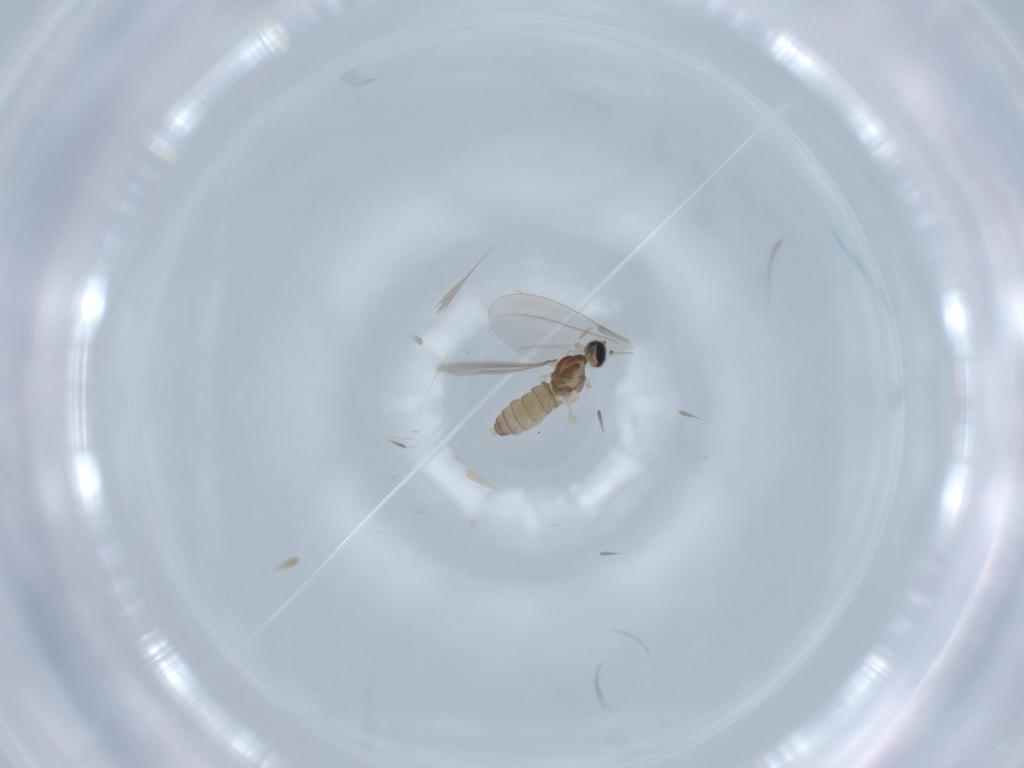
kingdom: Animalia
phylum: Arthropoda
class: Insecta
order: Diptera
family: Cecidomyiidae
